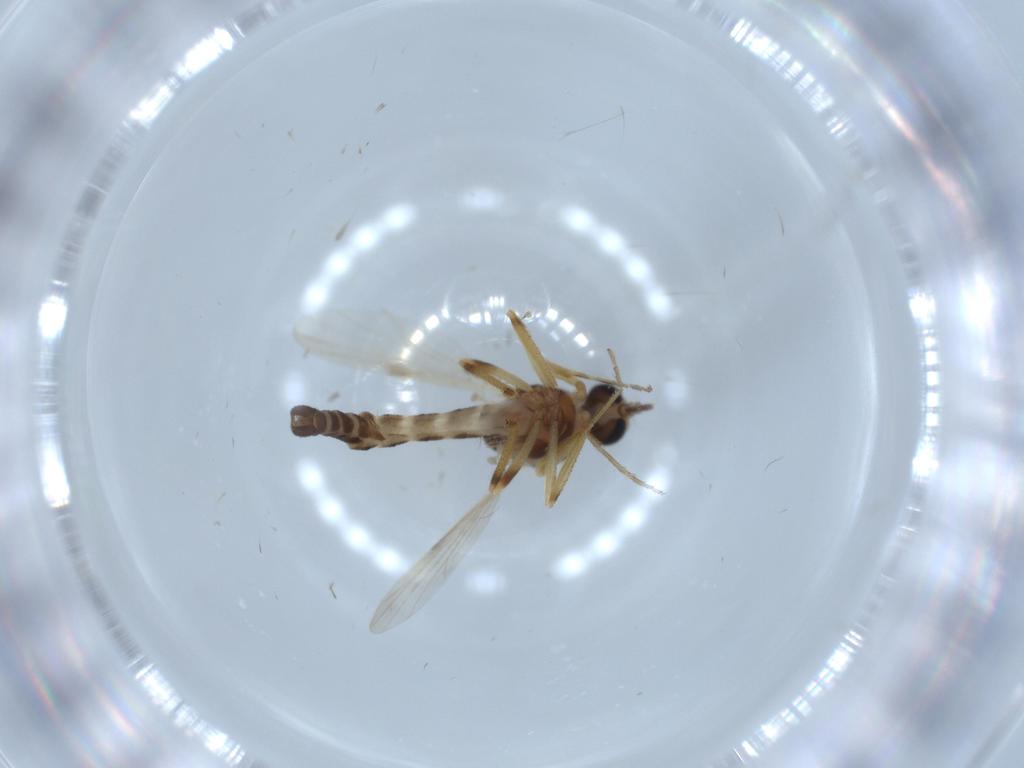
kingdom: Animalia
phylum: Arthropoda
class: Insecta
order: Diptera
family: Ceratopogonidae
